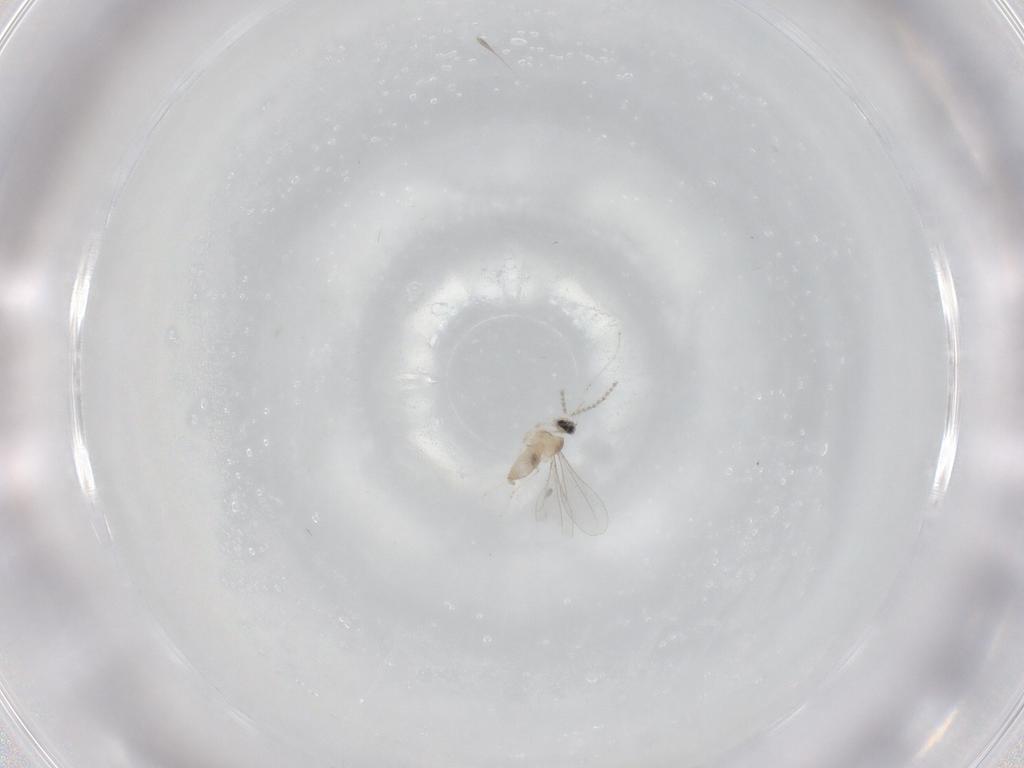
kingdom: Animalia
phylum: Arthropoda
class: Insecta
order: Diptera
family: Cecidomyiidae
